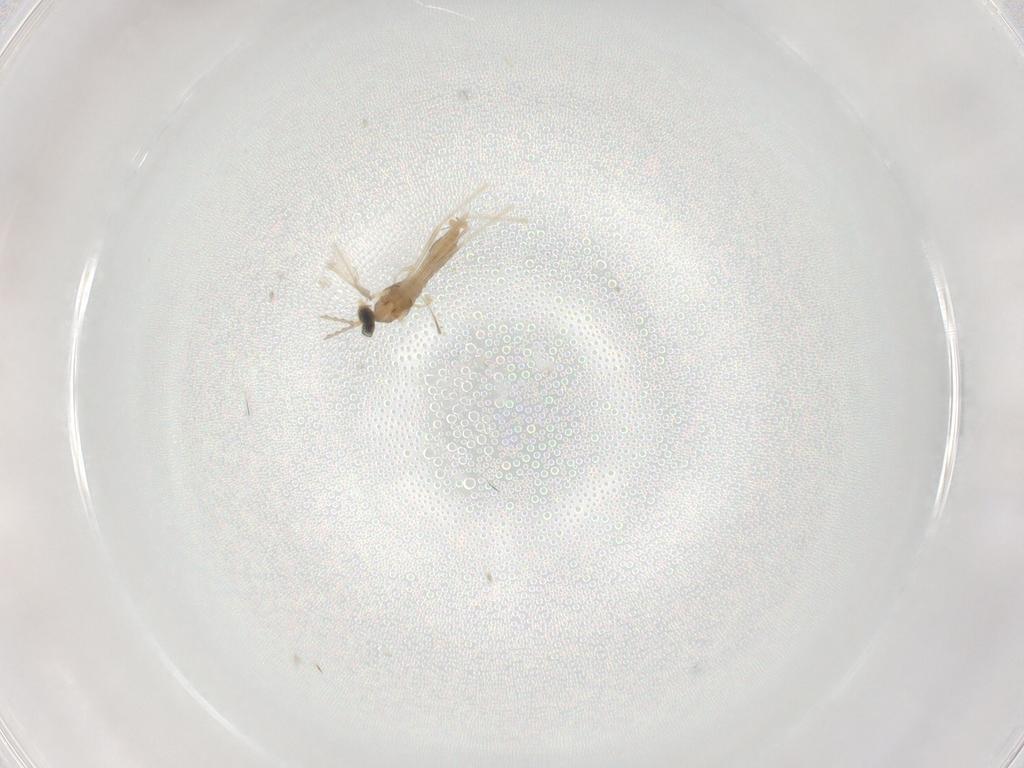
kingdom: Animalia
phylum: Arthropoda
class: Insecta
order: Diptera
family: Cecidomyiidae
